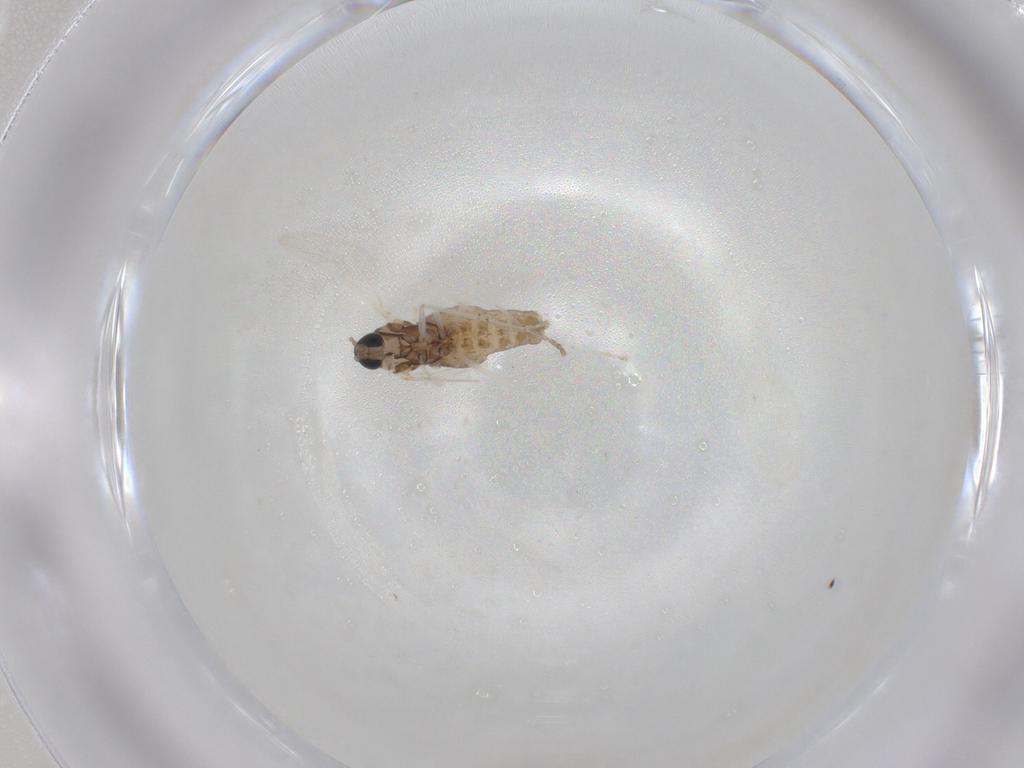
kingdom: Animalia
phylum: Arthropoda
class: Insecta
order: Diptera
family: Cecidomyiidae
